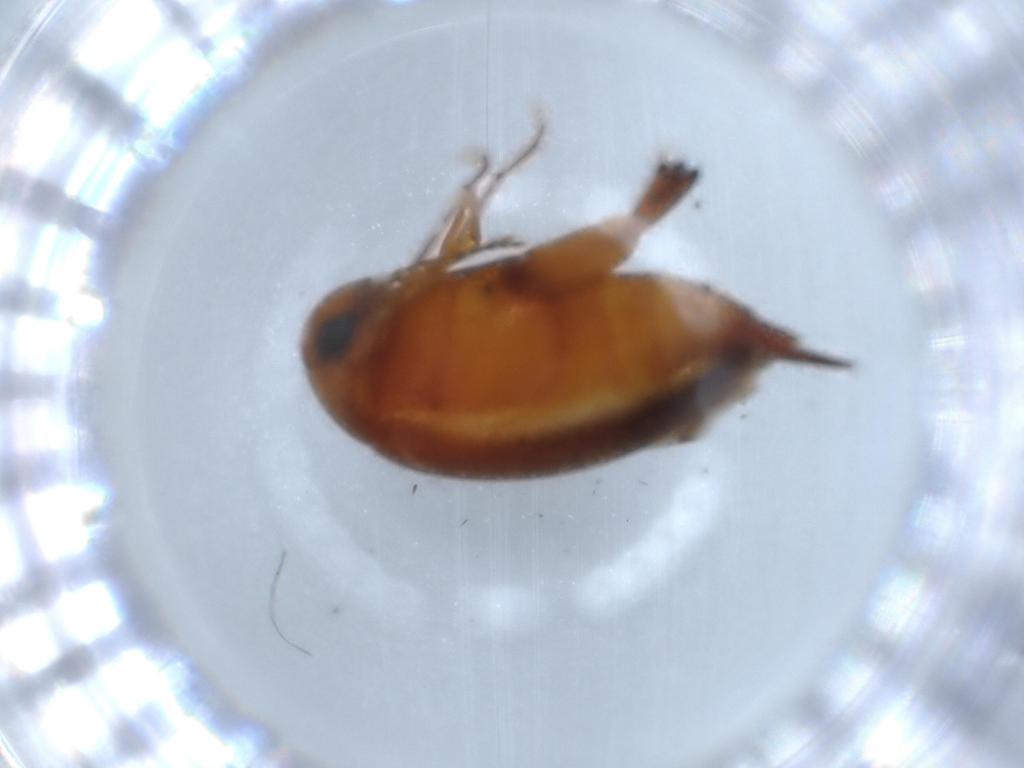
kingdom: Animalia
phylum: Arthropoda
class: Insecta
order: Coleoptera
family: Mordellidae
